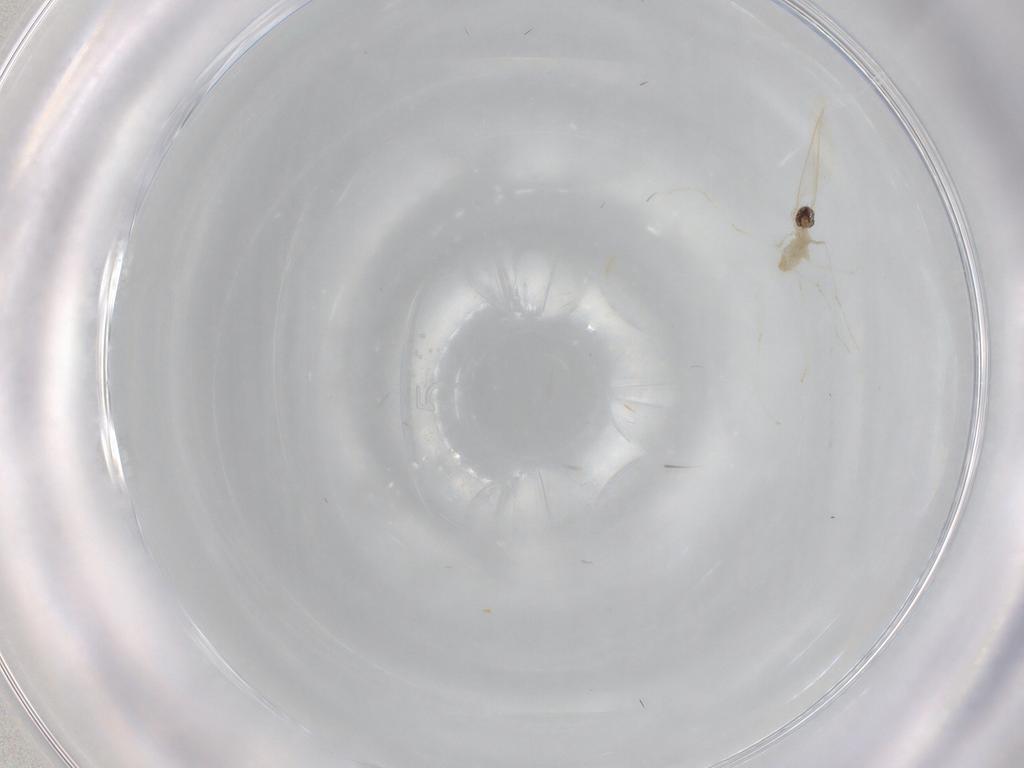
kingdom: Animalia
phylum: Arthropoda
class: Insecta
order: Diptera
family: Cecidomyiidae
